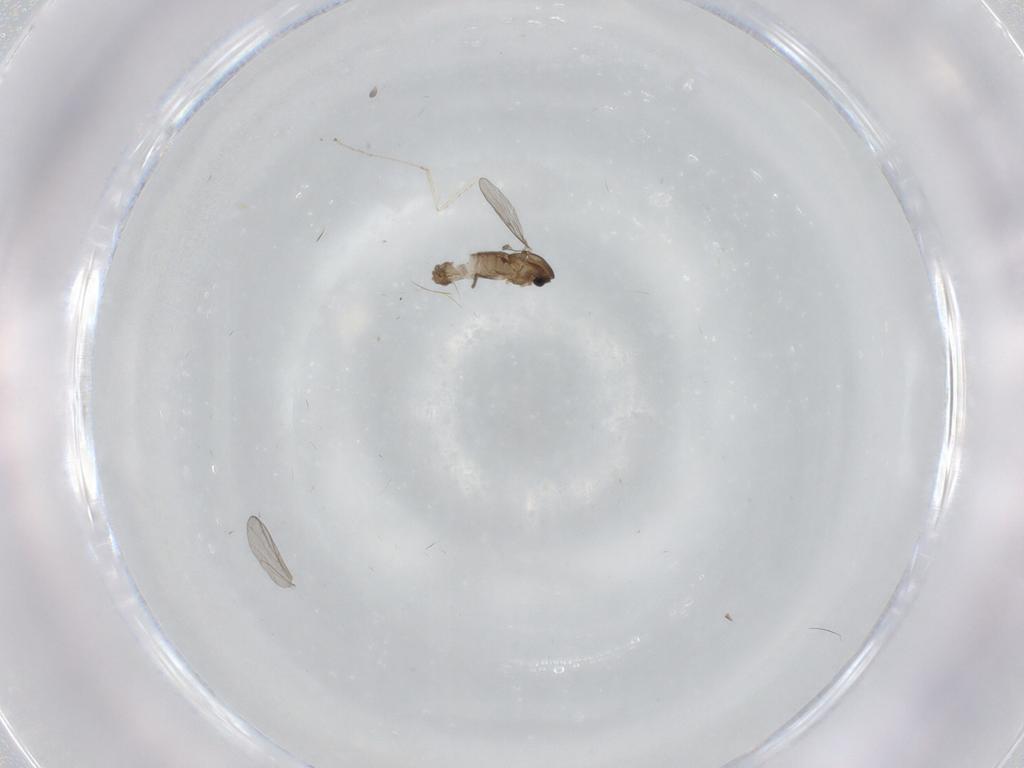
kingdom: Animalia
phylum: Arthropoda
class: Insecta
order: Diptera
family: Chironomidae
